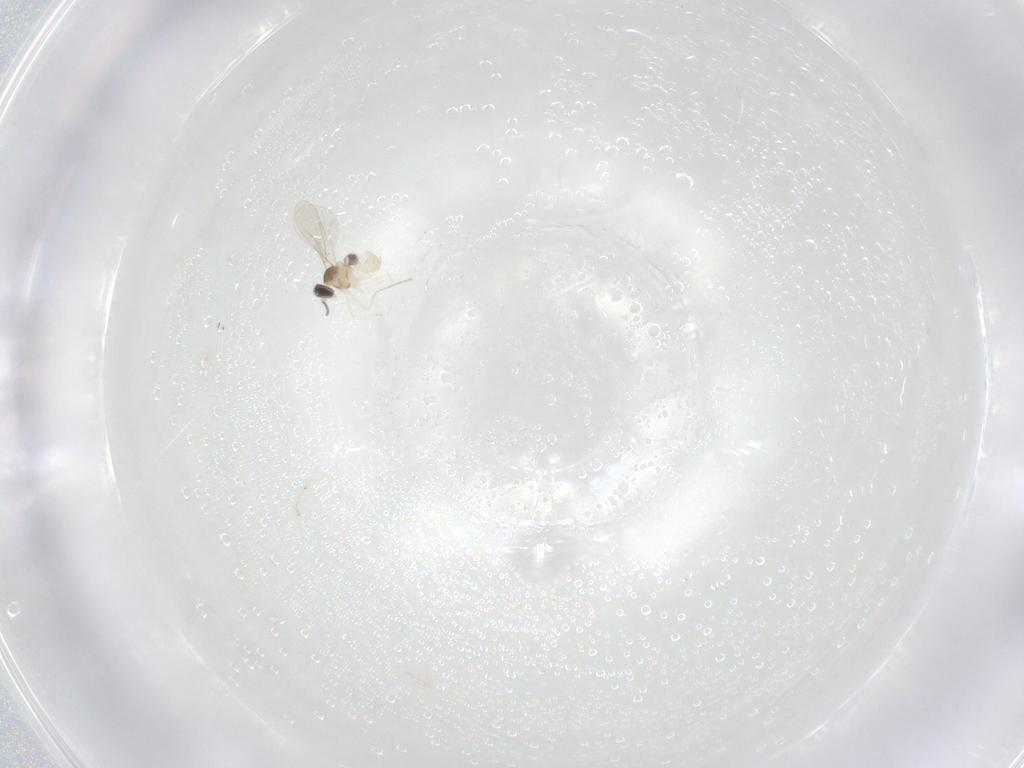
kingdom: Animalia
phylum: Arthropoda
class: Insecta
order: Diptera
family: Cecidomyiidae
